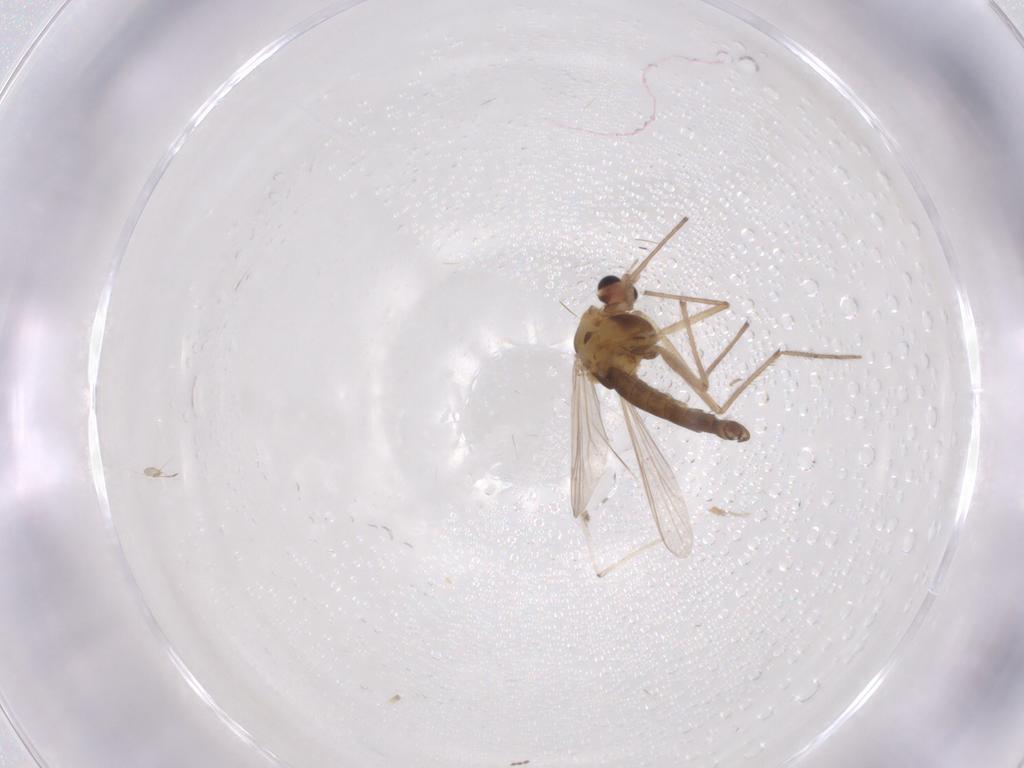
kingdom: Animalia
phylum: Arthropoda
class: Insecta
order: Diptera
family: Chironomidae
